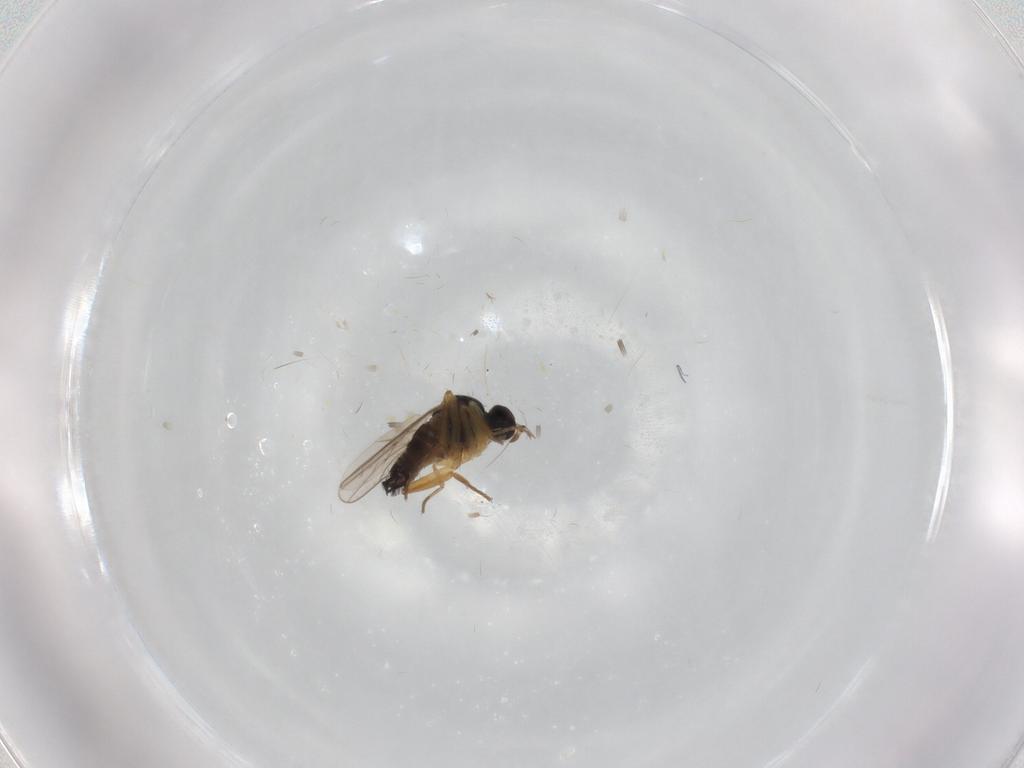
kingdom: Animalia
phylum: Arthropoda
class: Insecta
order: Diptera
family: Hybotidae
